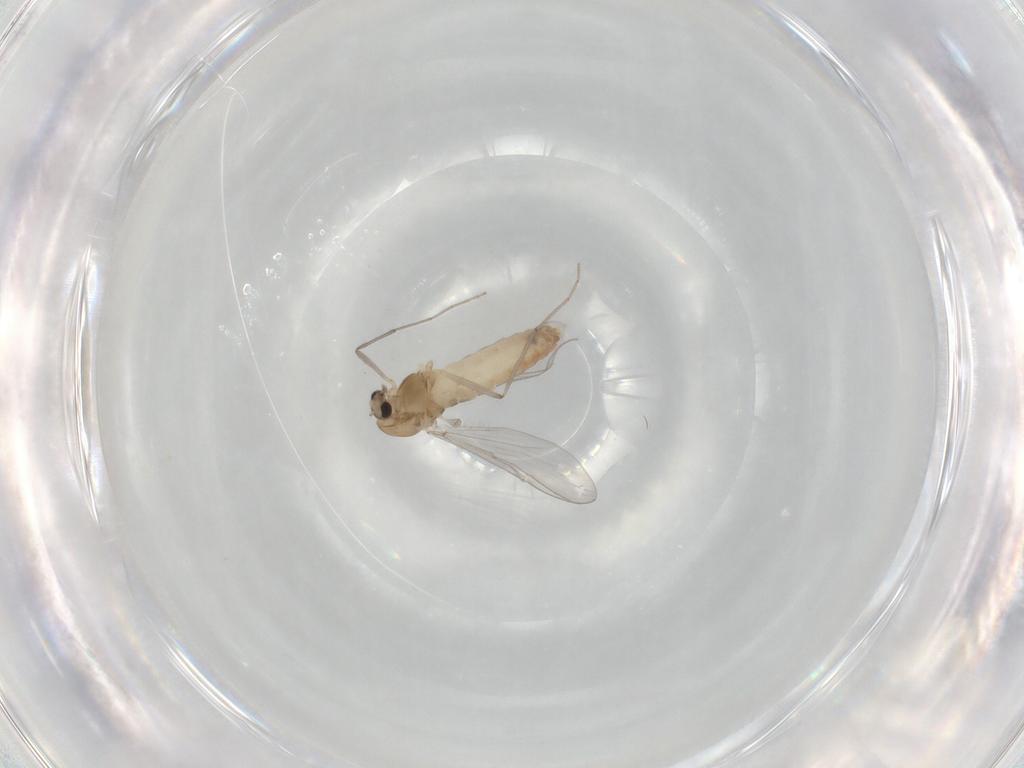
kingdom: Animalia
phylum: Arthropoda
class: Insecta
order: Diptera
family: Chironomidae
